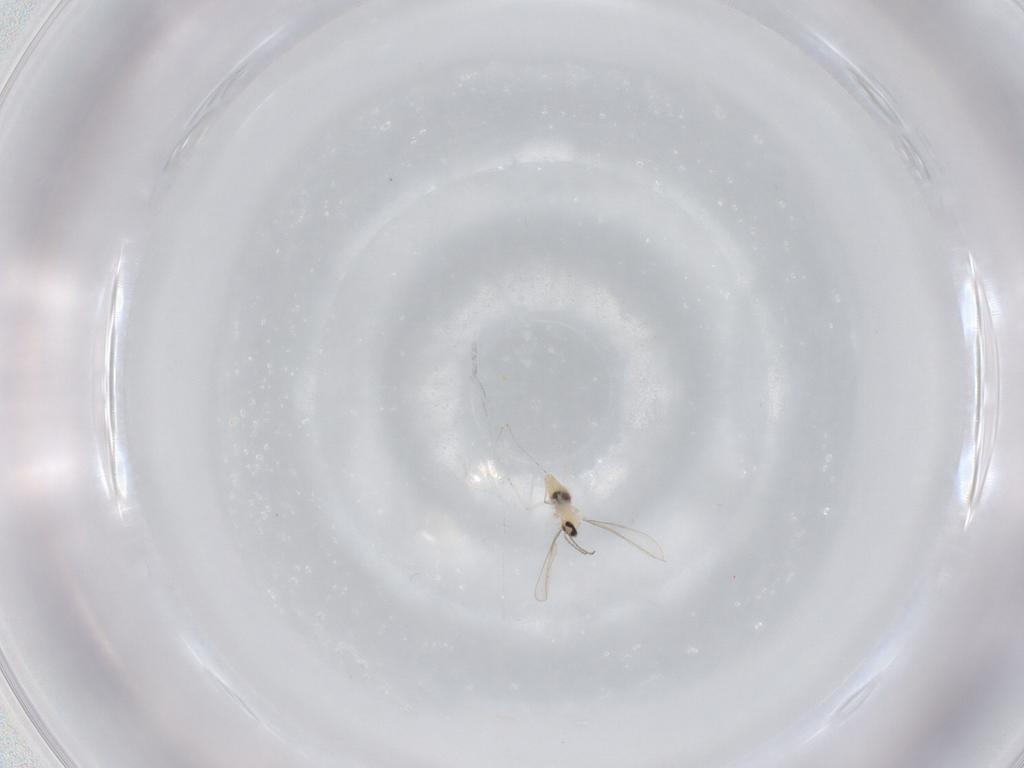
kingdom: Animalia
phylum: Arthropoda
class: Insecta
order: Diptera
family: Cecidomyiidae
